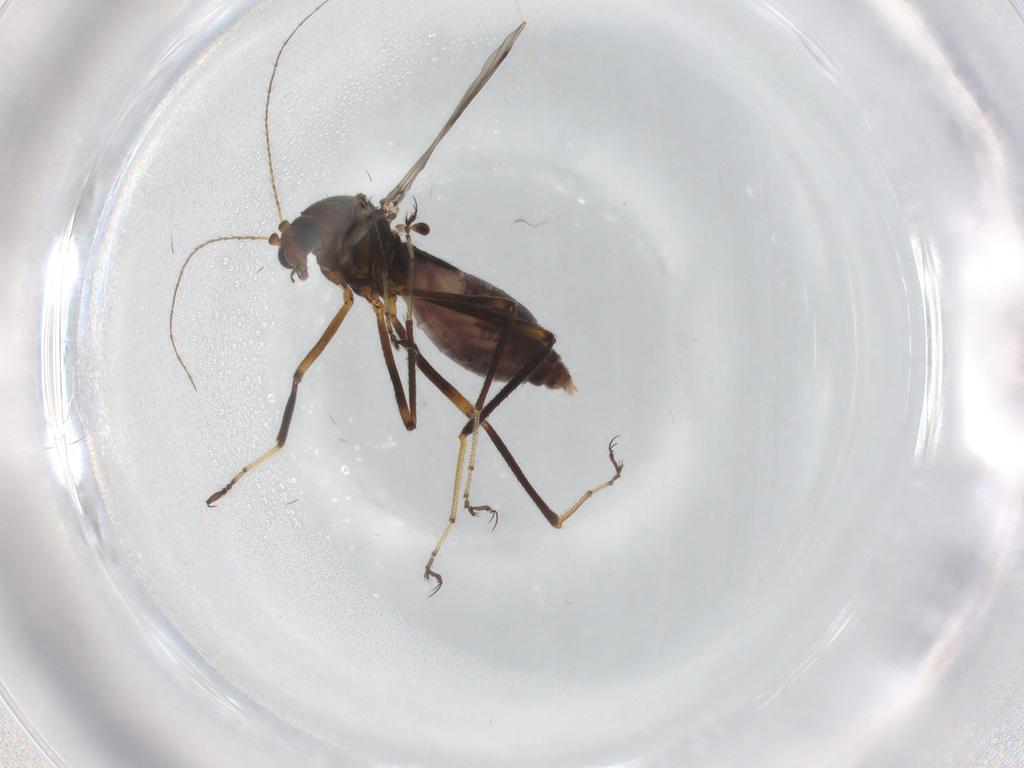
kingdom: Animalia
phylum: Arthropoda
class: Insecta
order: Diptera
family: Ceratopogonidae
